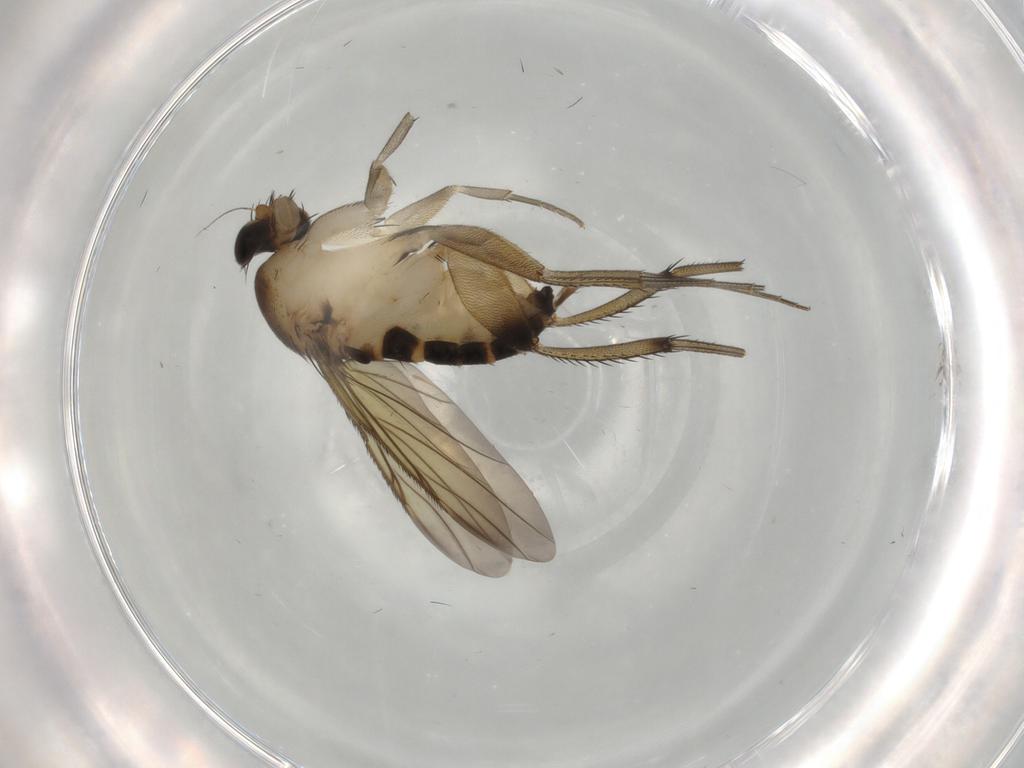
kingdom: Animalia
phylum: Arthropoda
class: Insecta
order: Diptera
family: Phoridae
